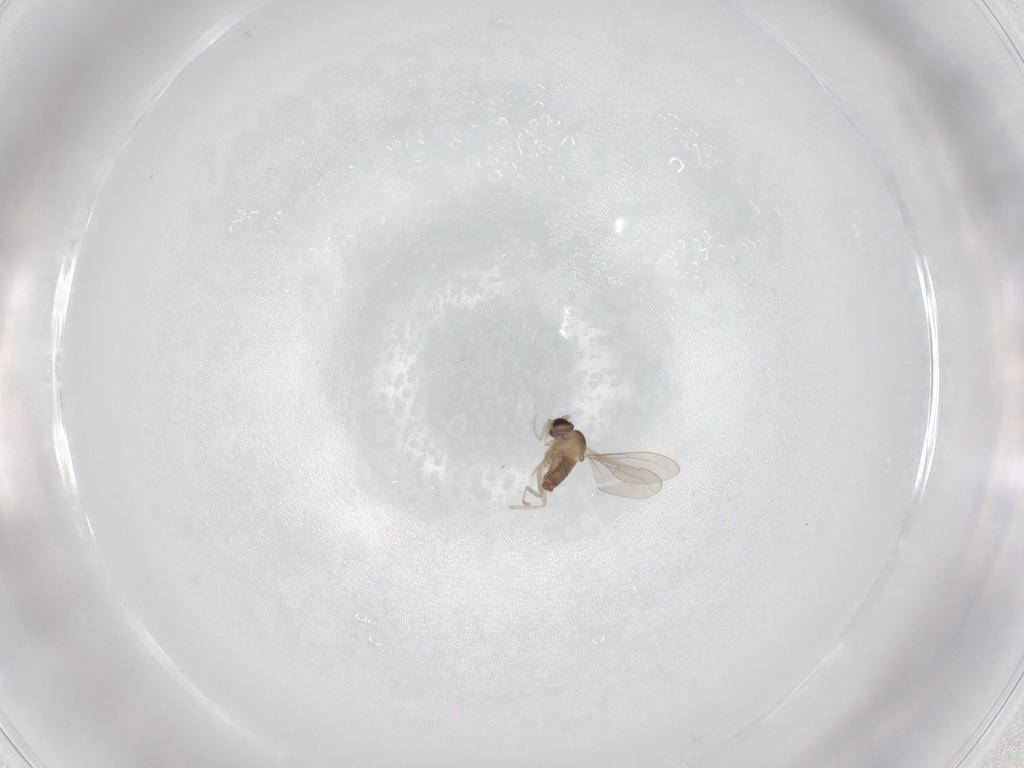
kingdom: Animalia
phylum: Arthropoda
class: Insecta
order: Diptera
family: Cecidomyiidae
